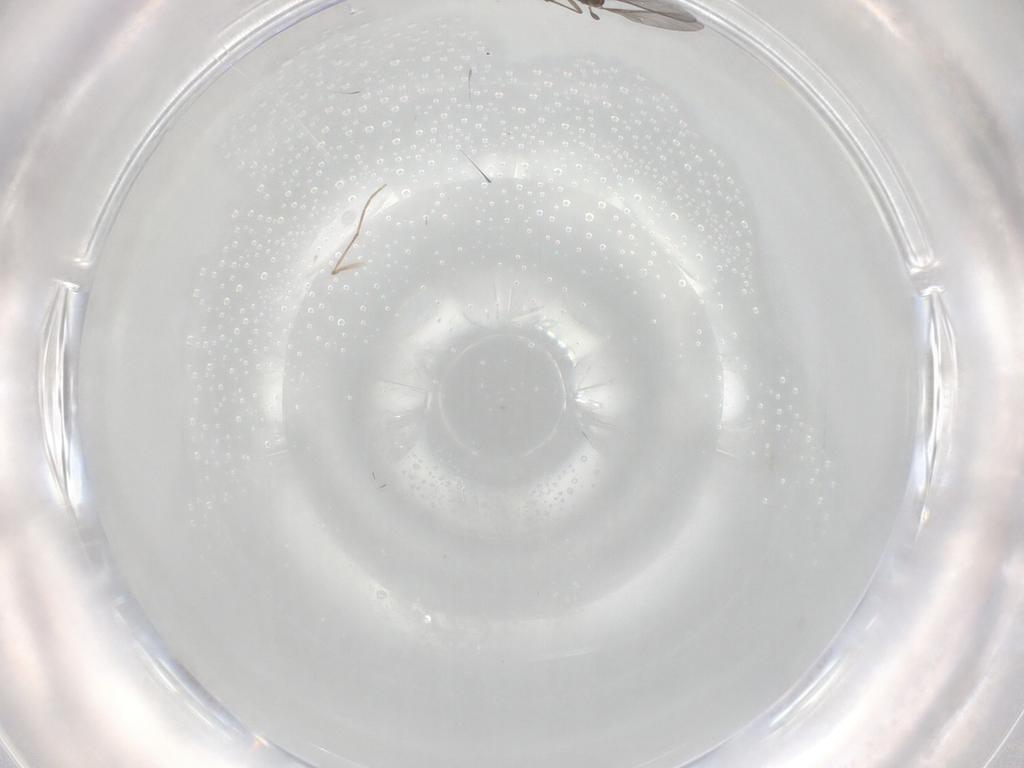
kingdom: Animalia
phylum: Arthropoda
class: Insecta
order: Diptera
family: Sciaridae
